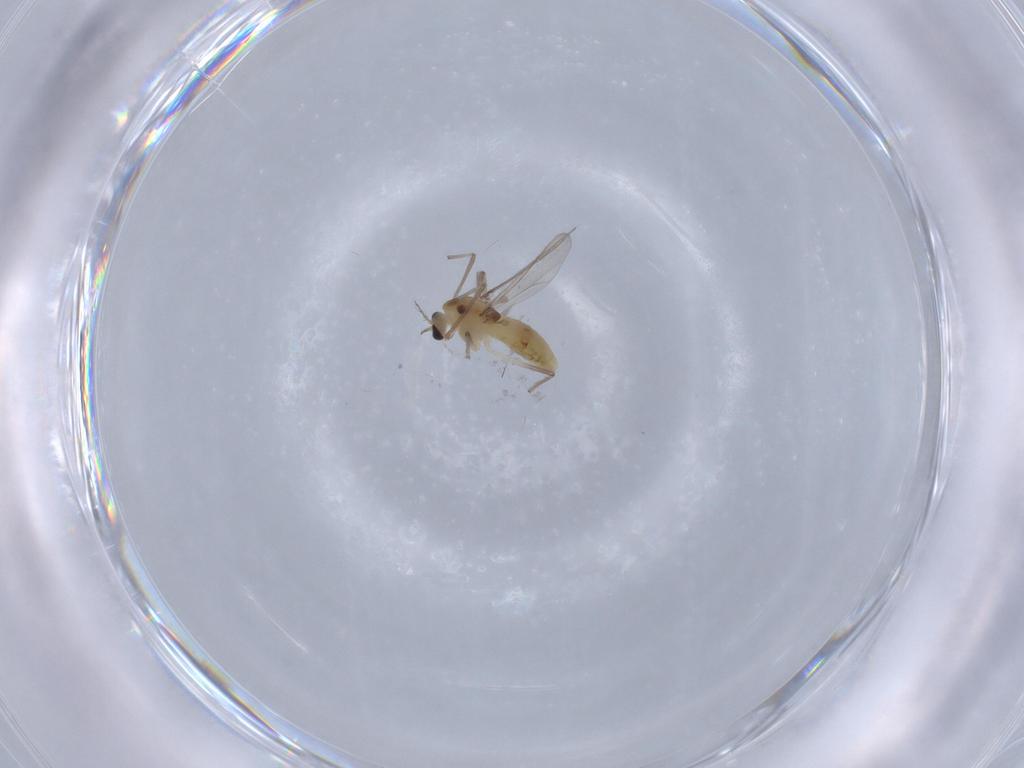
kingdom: Animalia
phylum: Arthropoda
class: Insecta
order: Diptera
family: Chironomidae
